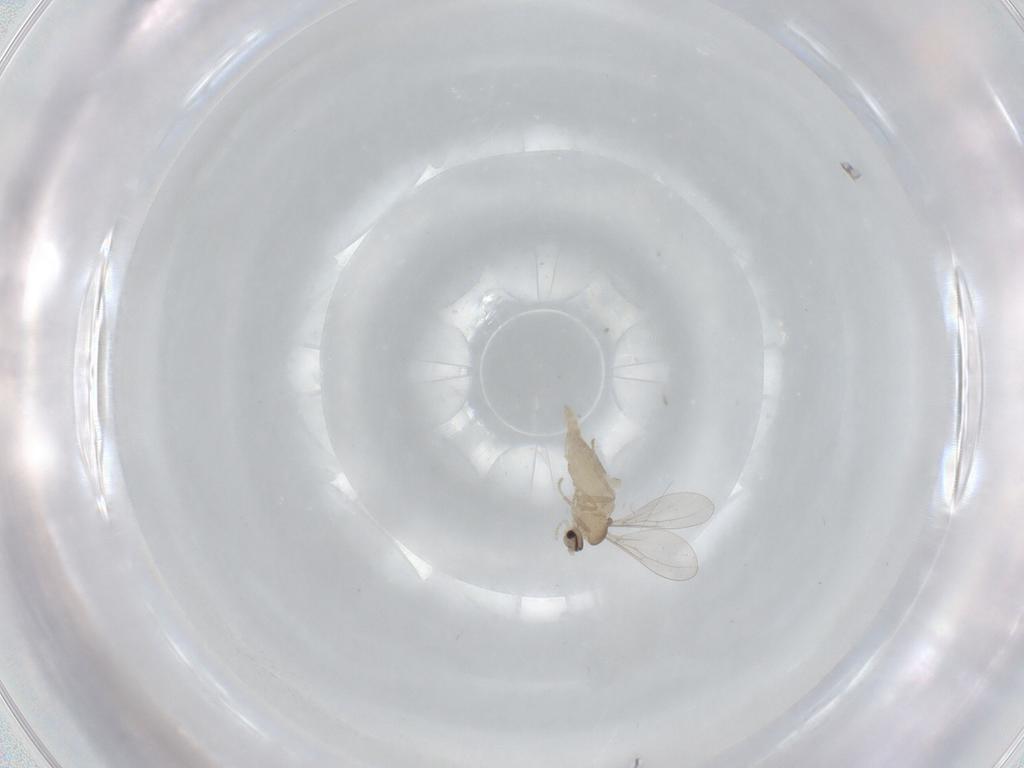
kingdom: Animalia
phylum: Arthropoda
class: Insecta
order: Diptera
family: Cecidomyiidae
